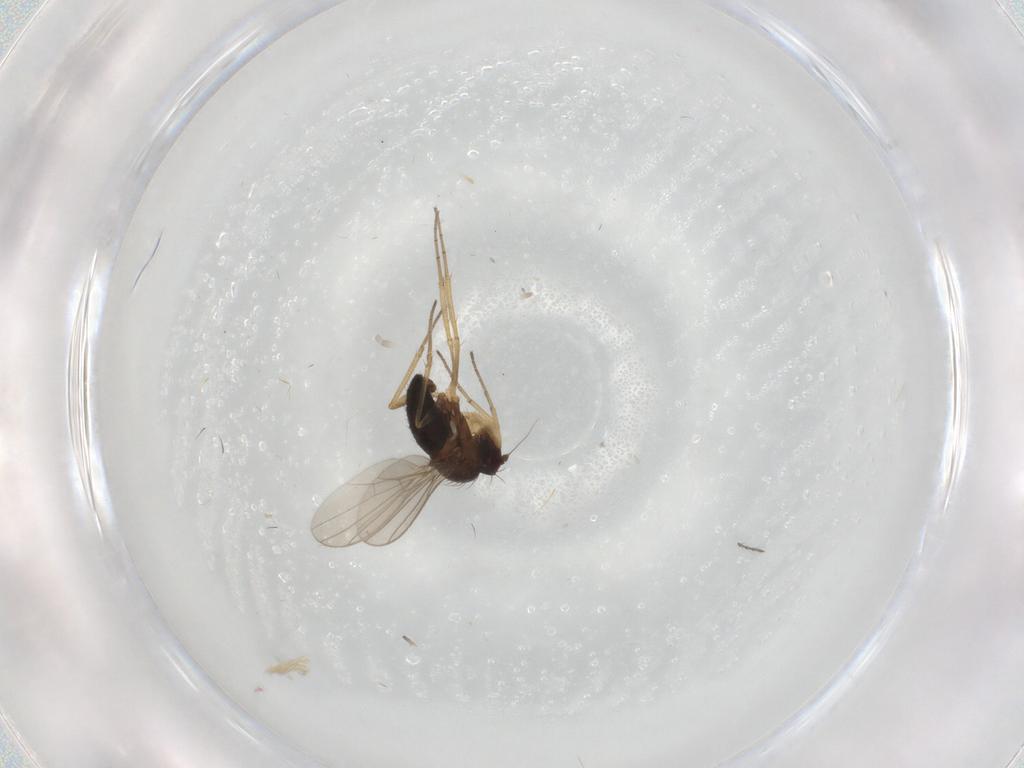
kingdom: Animalia
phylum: Arthropoda
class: Insecta
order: Diptera
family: Dolichopodidae
